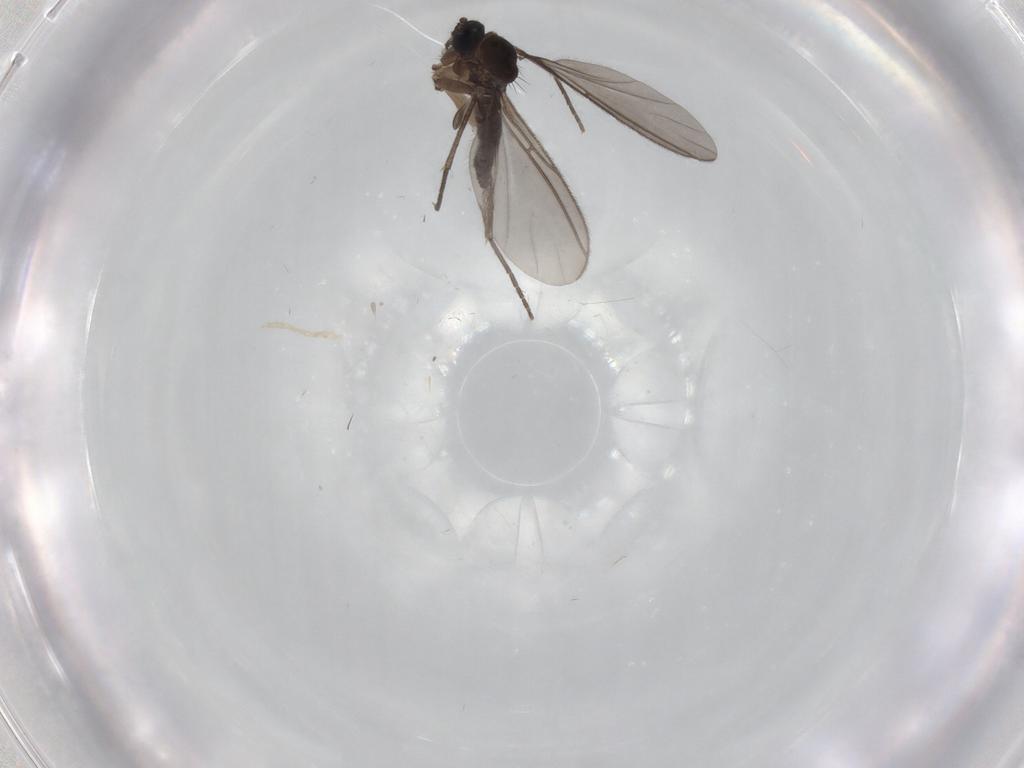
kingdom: Animalia
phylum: Arthropoda
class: Insecta
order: Diptera
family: Sciaridae
